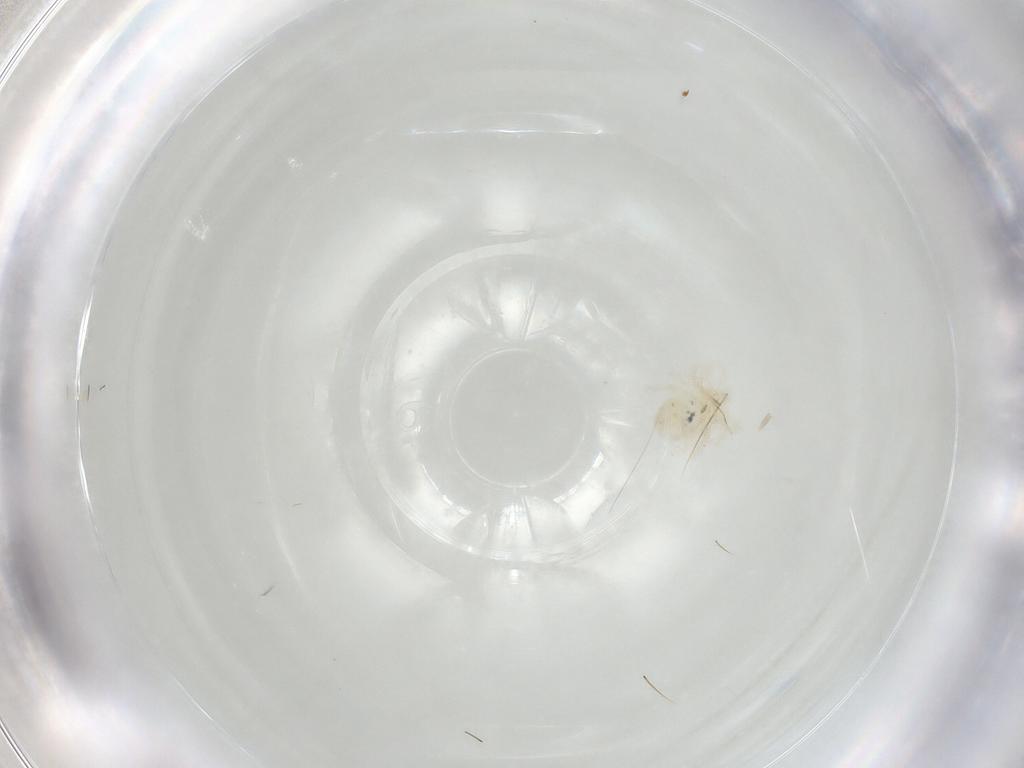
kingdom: Animalia
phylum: Arthropoda
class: Arachnida
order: Trombidiformes
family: Anystidae
